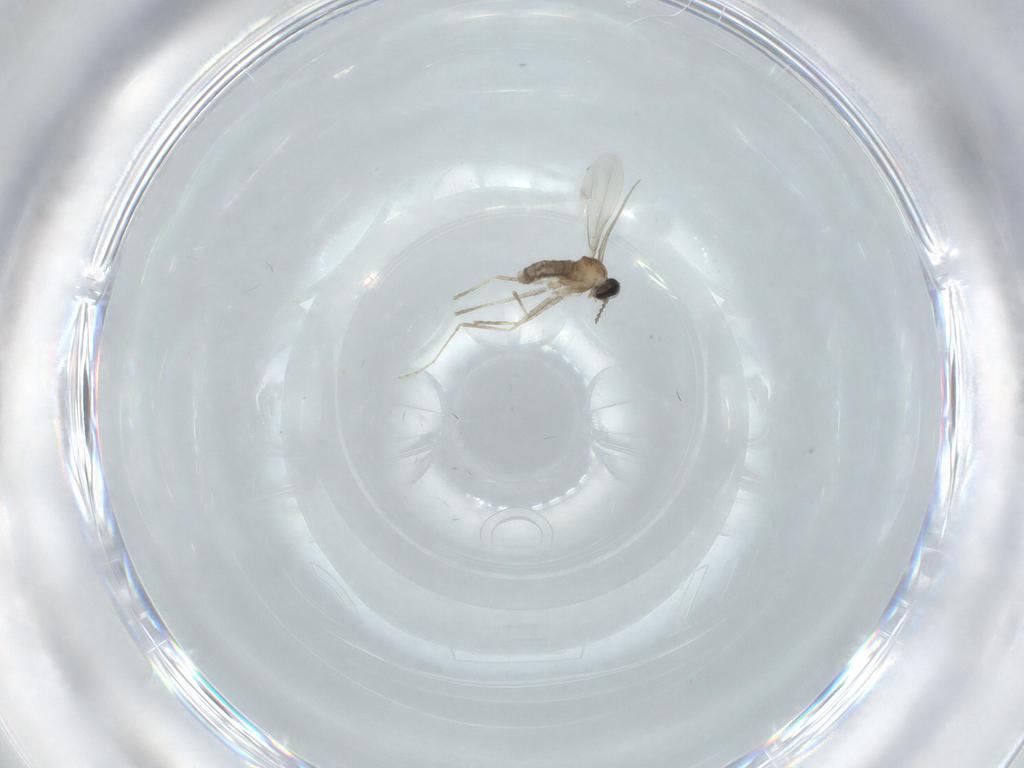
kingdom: Animalia
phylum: Arthropoda
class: Insecta
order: Diptera
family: Cecidomyiidae
